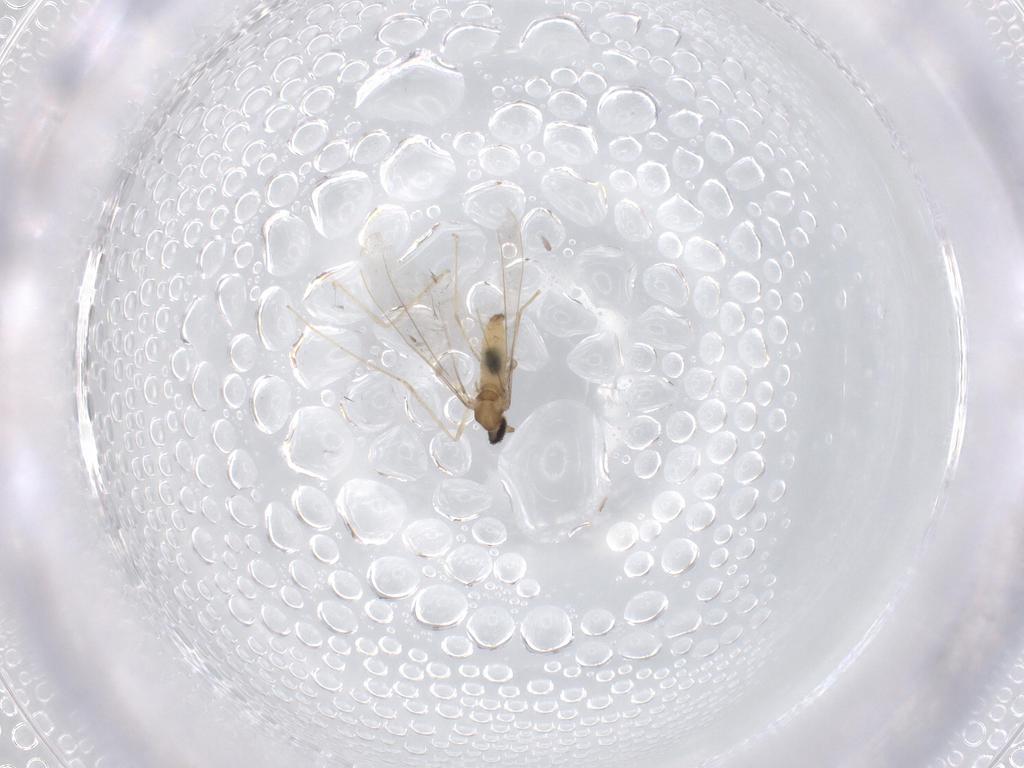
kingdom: Animalia
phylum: Arthropoda
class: Insecta
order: Diptera
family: Cecidomyiidae
